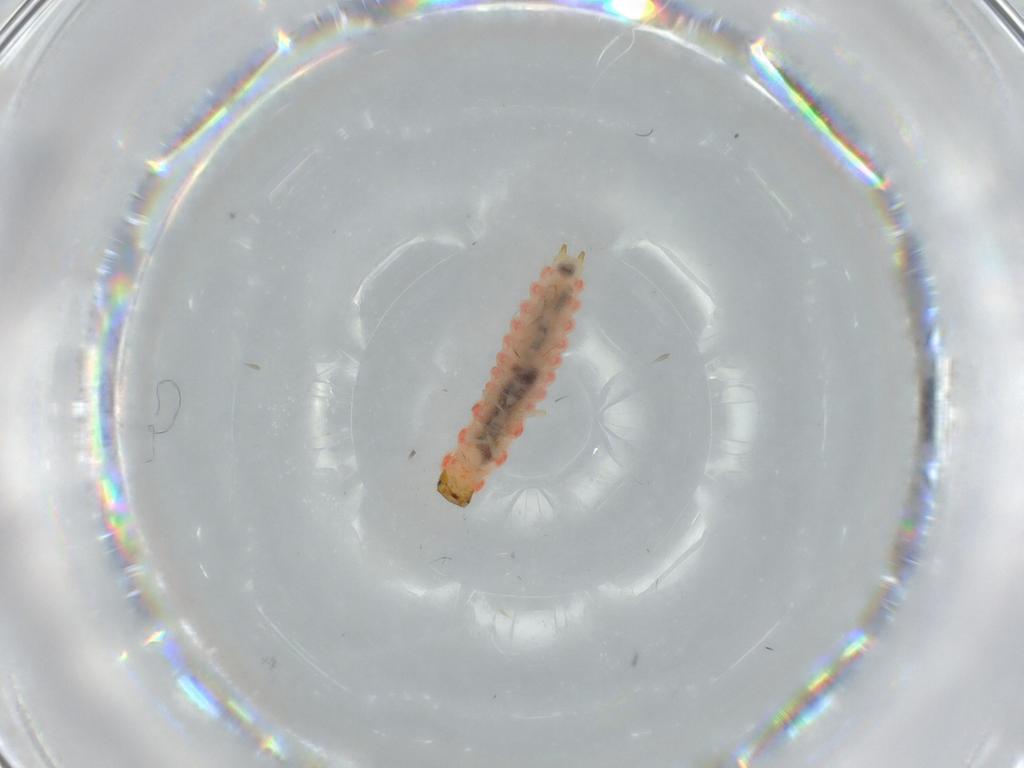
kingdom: Animalia
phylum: Arthropoda
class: Insecta
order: Coleoptera
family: Melyridae
